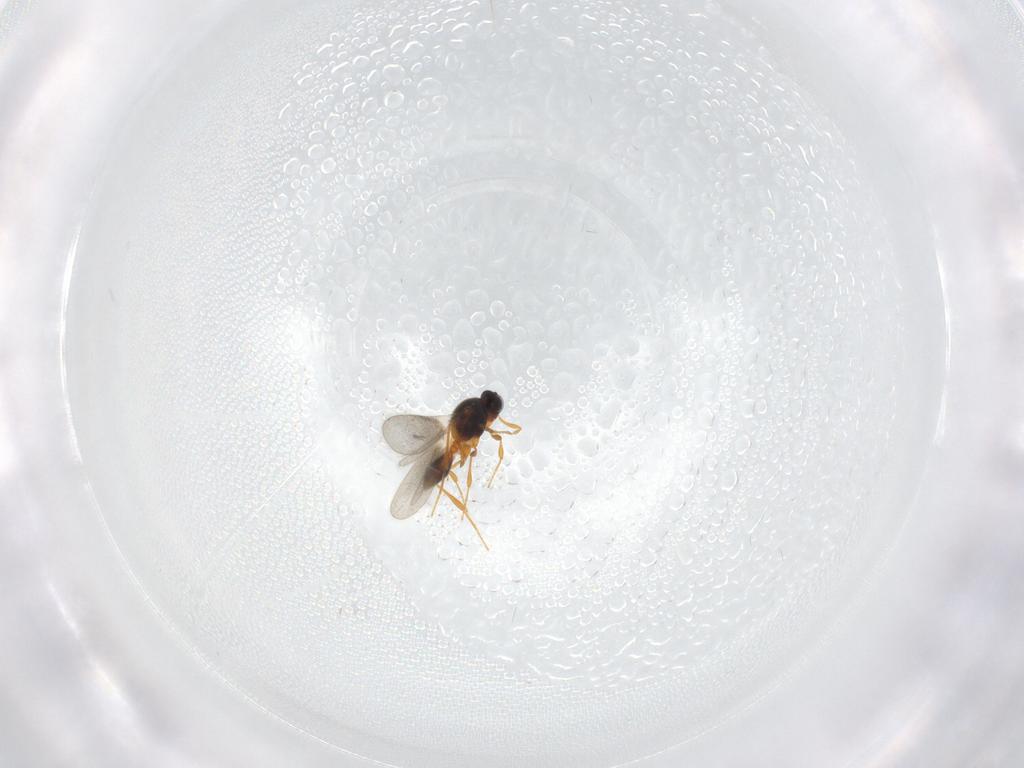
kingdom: Animalia
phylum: Arthropoda
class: Insecta
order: Hymenoptera
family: Platygastridae
